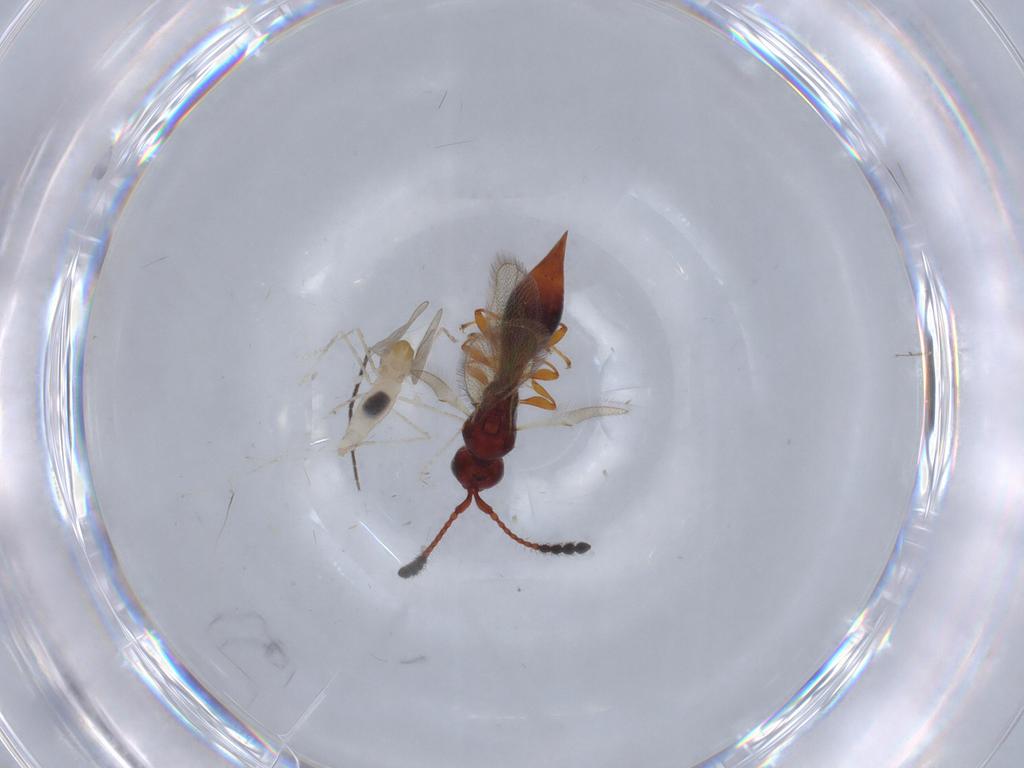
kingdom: Animalia
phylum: Arthropoda
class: Insecta
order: Diptera
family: Cecidomyiidae
